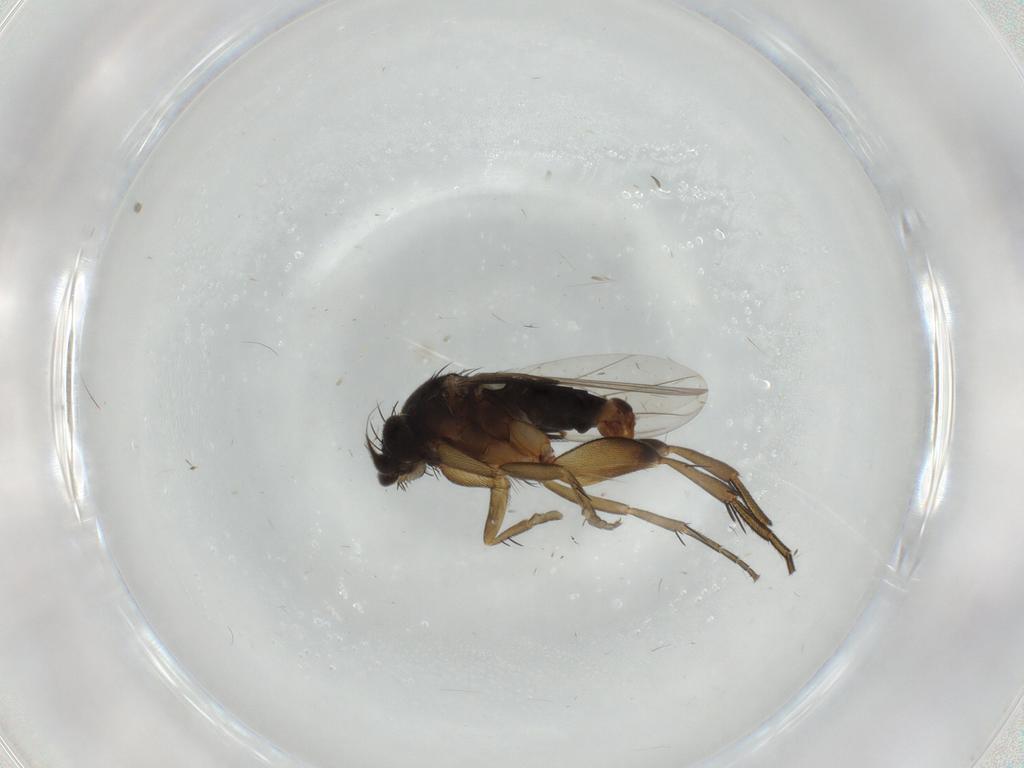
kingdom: Animalia
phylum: Arthropoda
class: Insecta
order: Diptera
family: Phoridae
